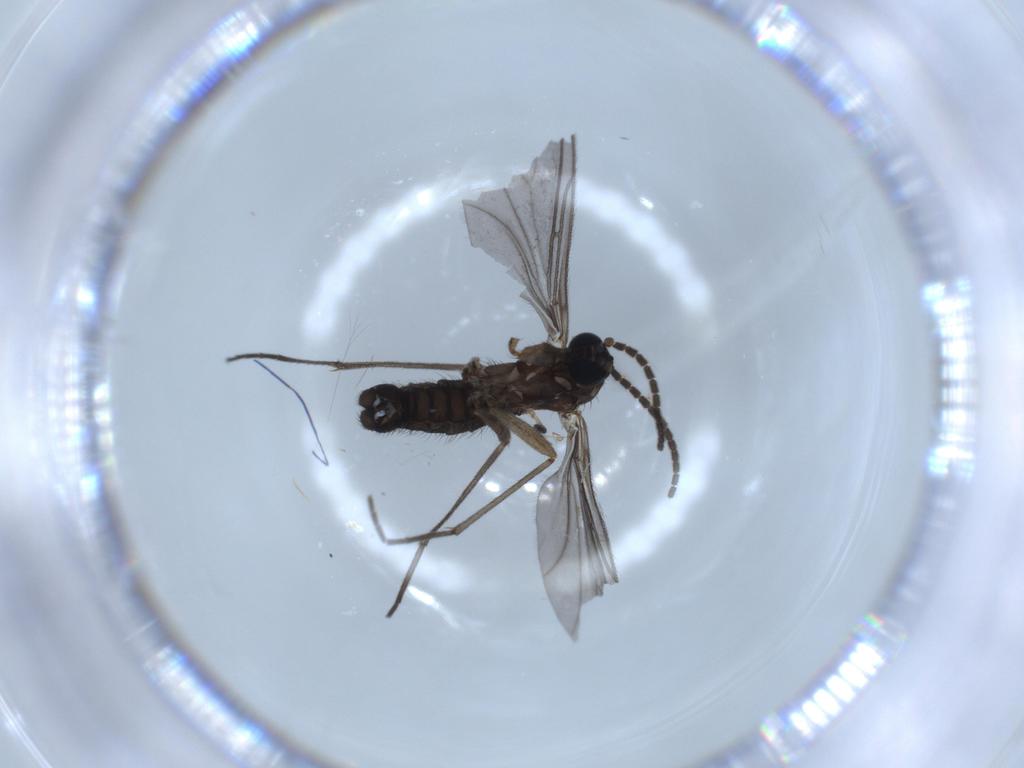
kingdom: Animalia
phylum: Arthropoda
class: Insecta
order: Diptera
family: Sciaridae
